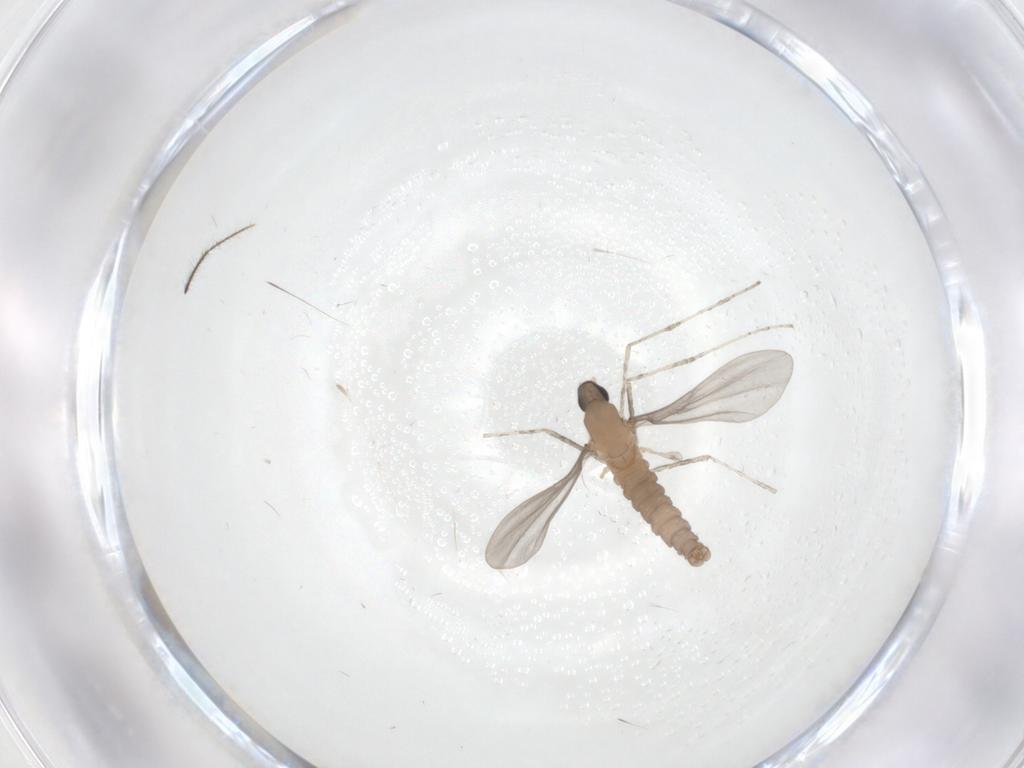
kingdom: Animalia
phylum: Arthropoda
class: Insecta
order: Diptera
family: Cecidomyiidae
